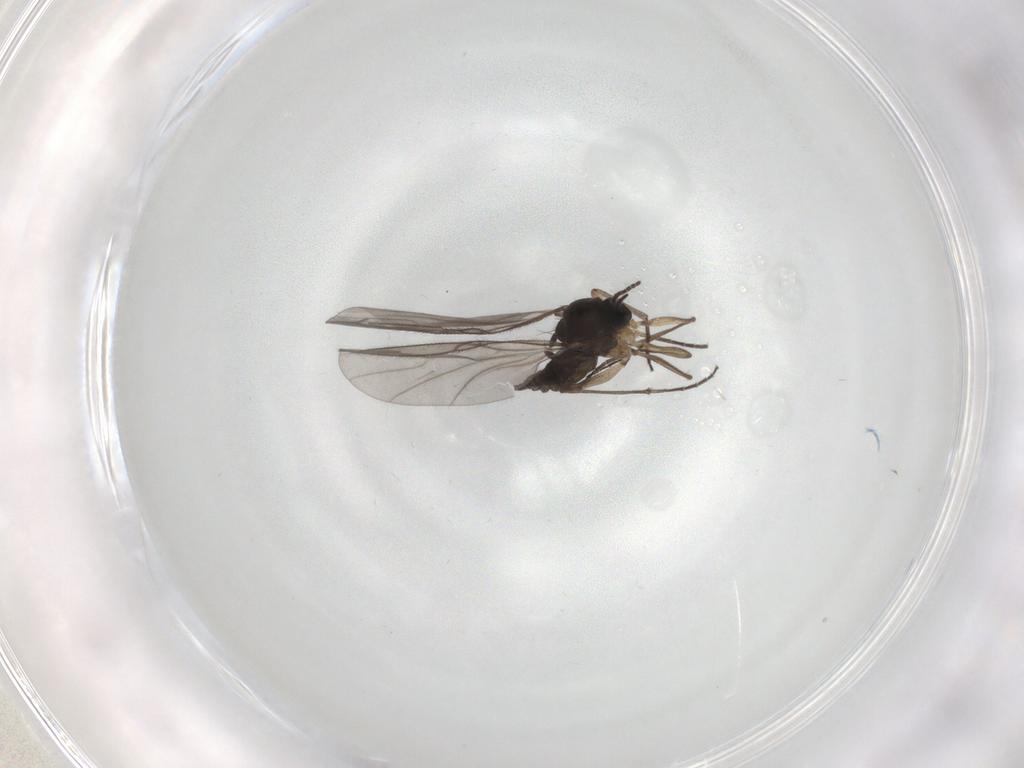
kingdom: Animalia
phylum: Arthropoda
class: Insecta
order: Diptera
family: Sciaridae
